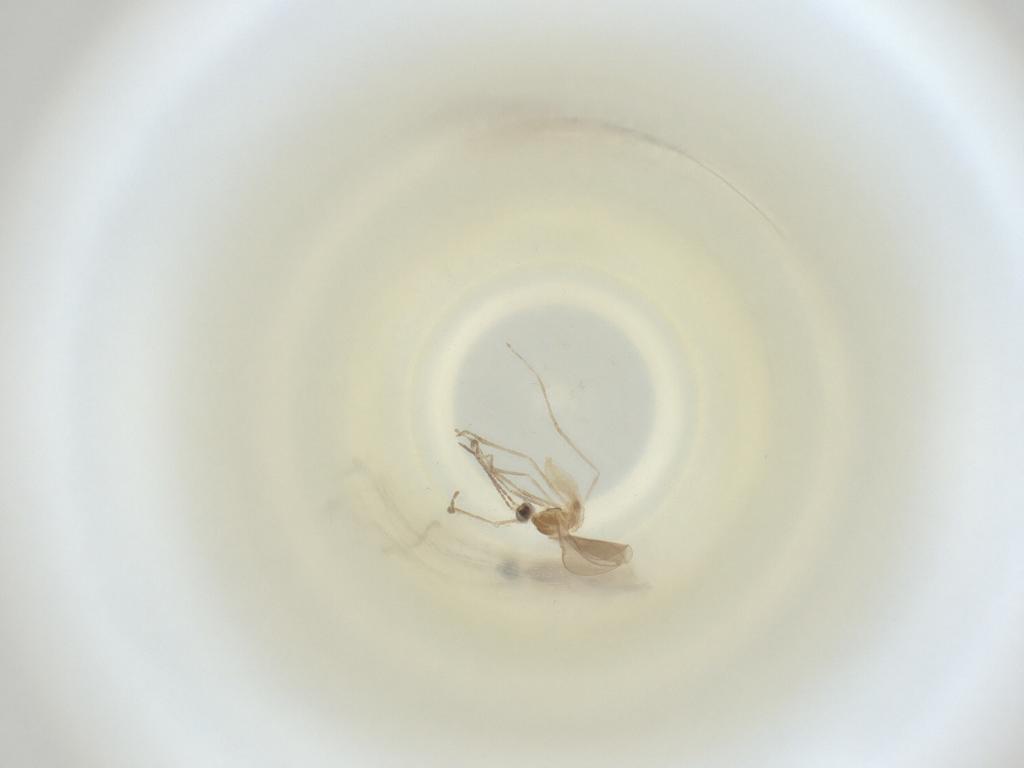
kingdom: Animalia
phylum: Arthropoda
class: Insecta
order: Diptera
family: Cecidomyiidae
